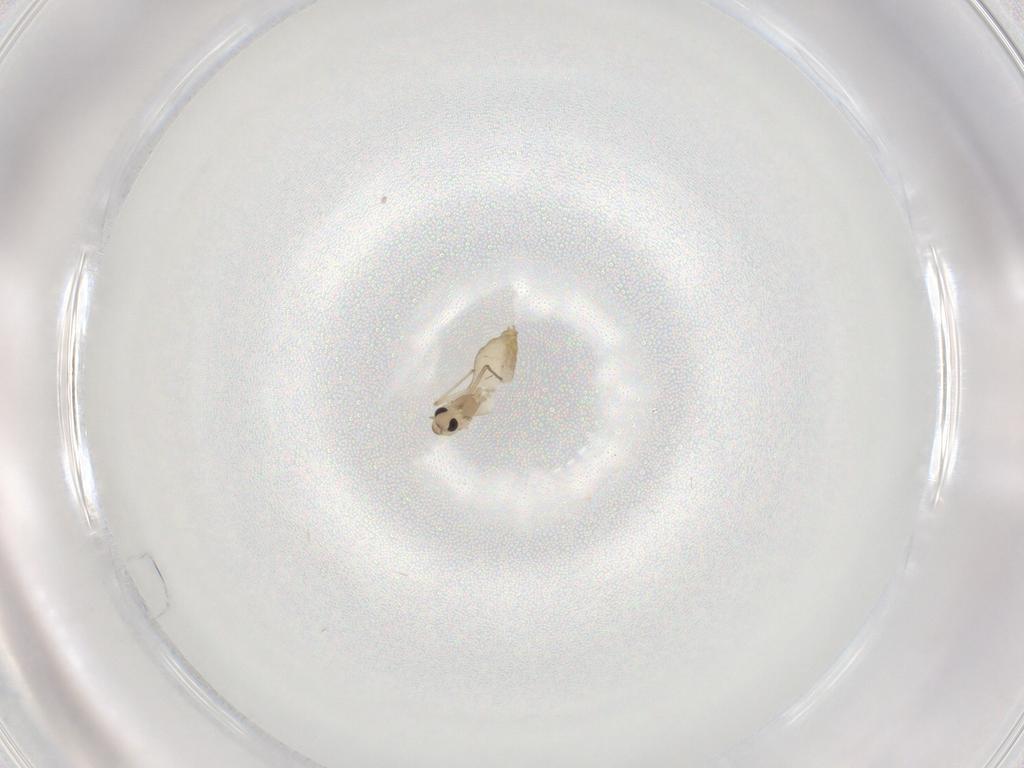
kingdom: Animalia
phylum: Arthropoda
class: Insecta
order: Diptera
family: Chironomidae
